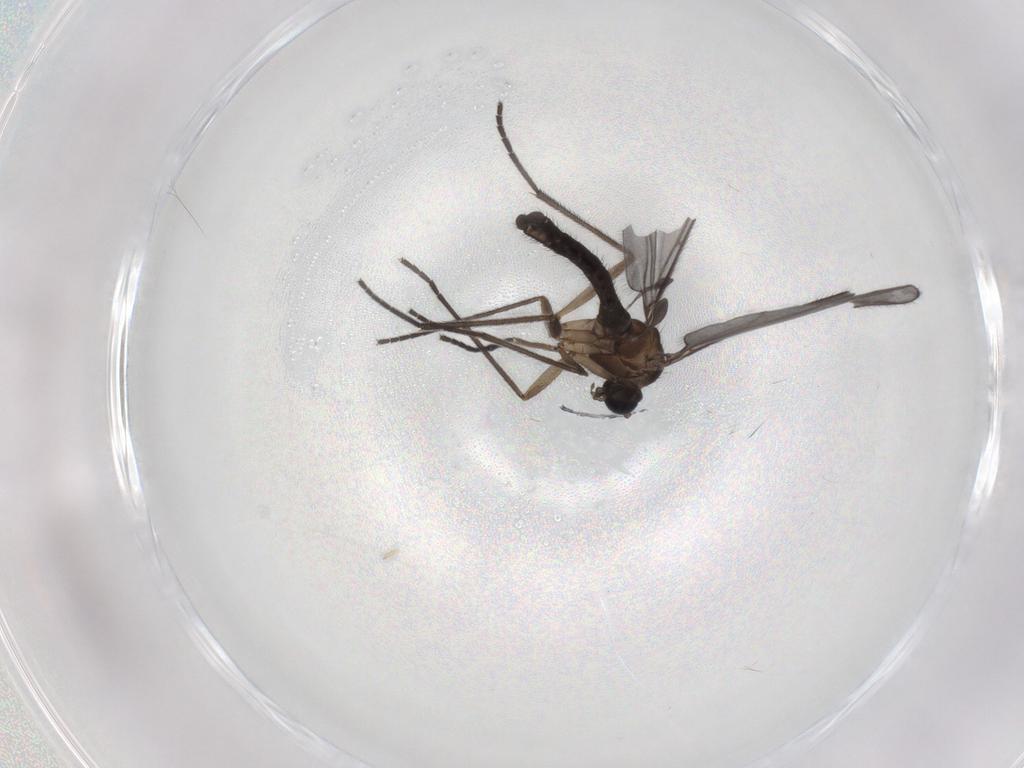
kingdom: Animalia
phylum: Arthropoda
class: Insecta
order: Diptera
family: Sciaridae
